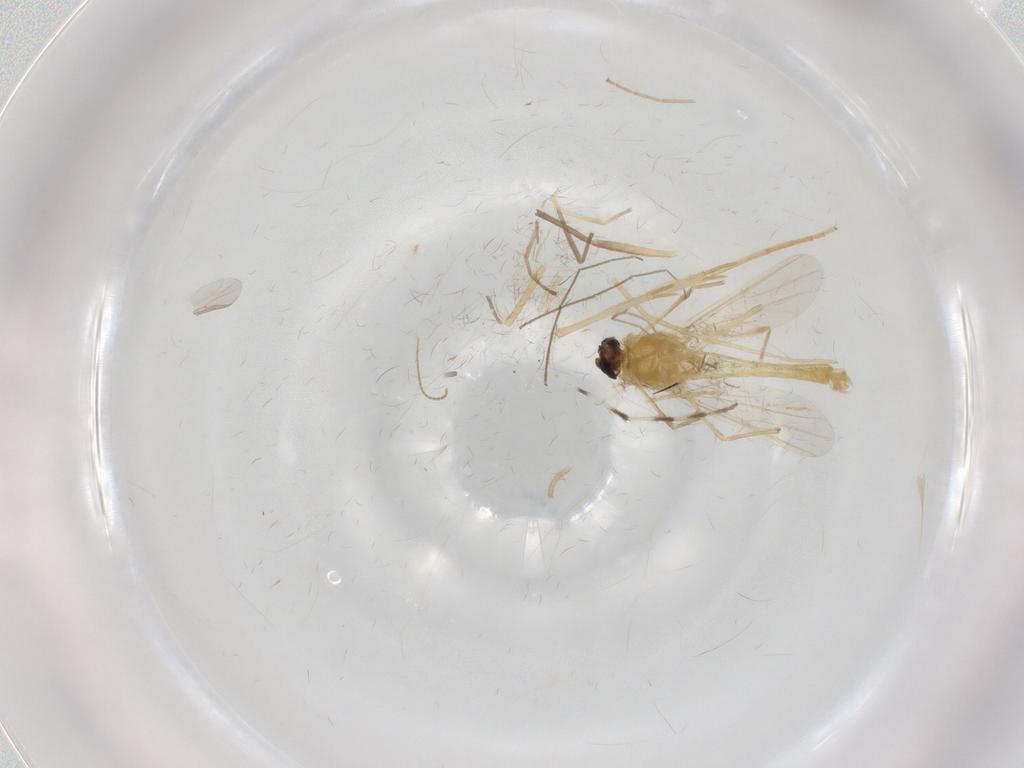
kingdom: Animalia
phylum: Arthropoda
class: Insecta
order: Diptera
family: Chironomidae
